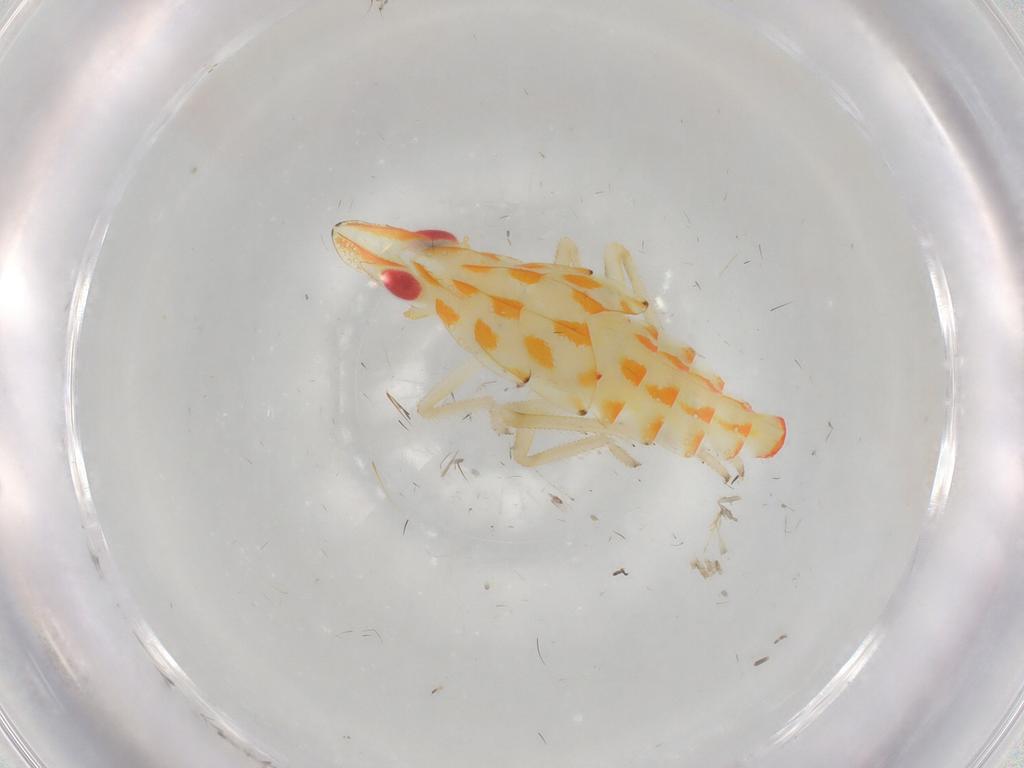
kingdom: Animalia
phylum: Arthropoda
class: Insecta
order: Hemiptera
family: Tropiduchidae
